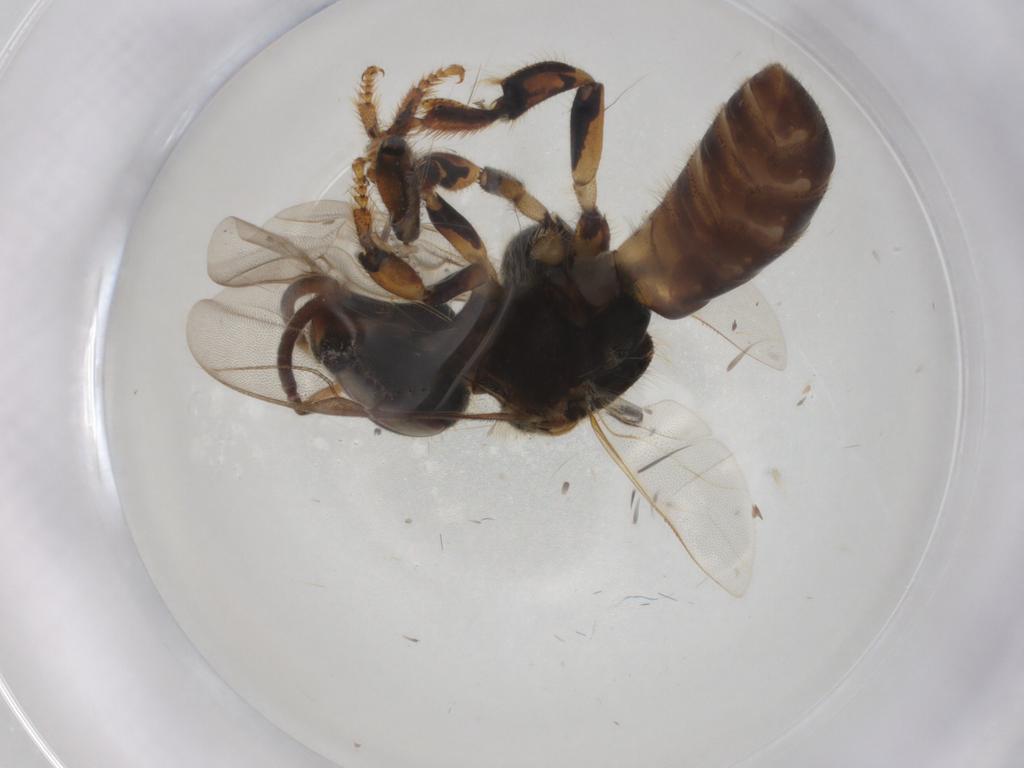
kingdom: Animalia
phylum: Arthropoda
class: Insecta
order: Hymenoptera
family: Apidae
